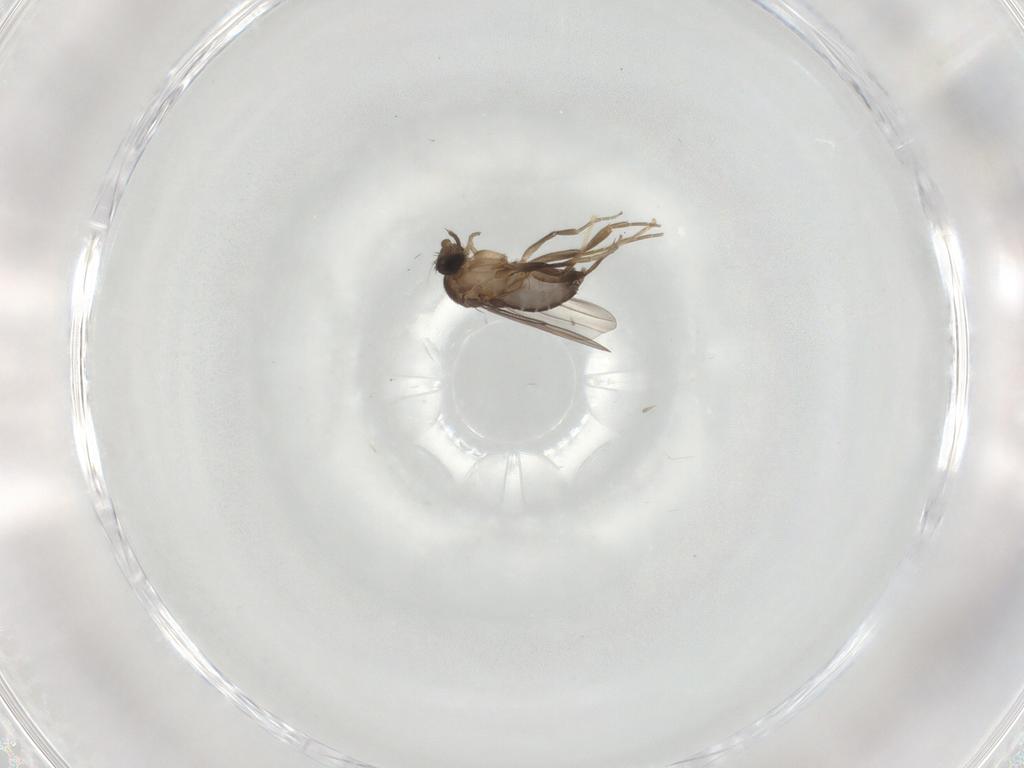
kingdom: Animalia
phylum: Arthropoda
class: Insecta
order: Diptera
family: Phoridae
